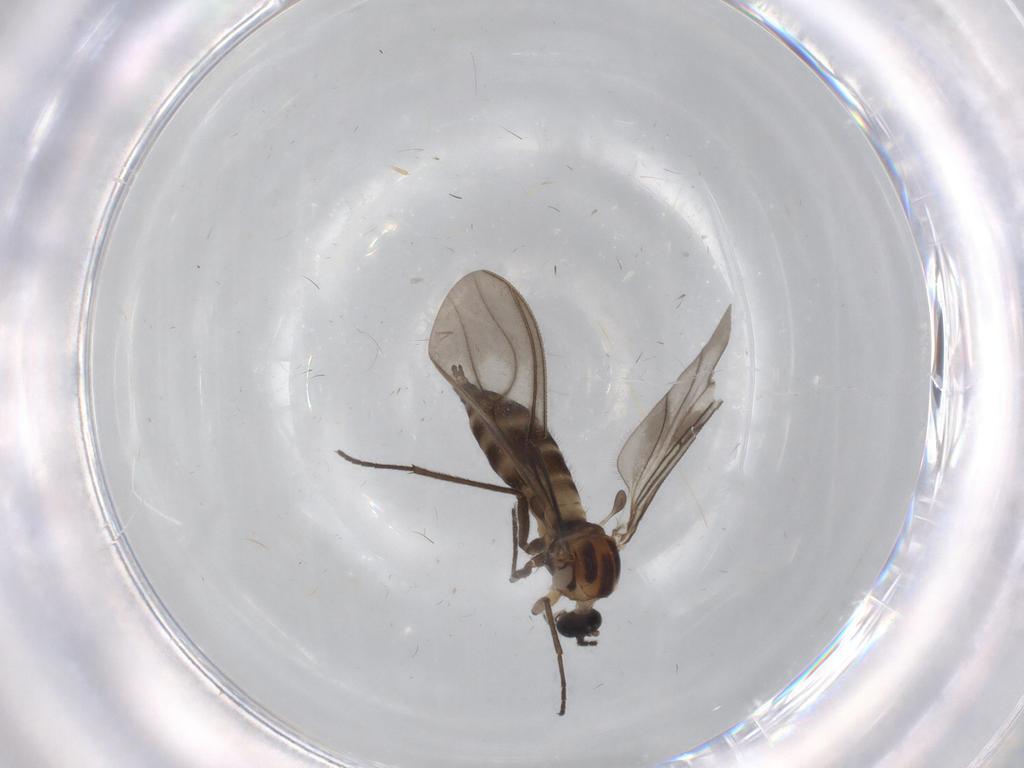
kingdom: Animalia
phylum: Arthropoda
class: Insecta
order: Diptera
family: Sciaridae
